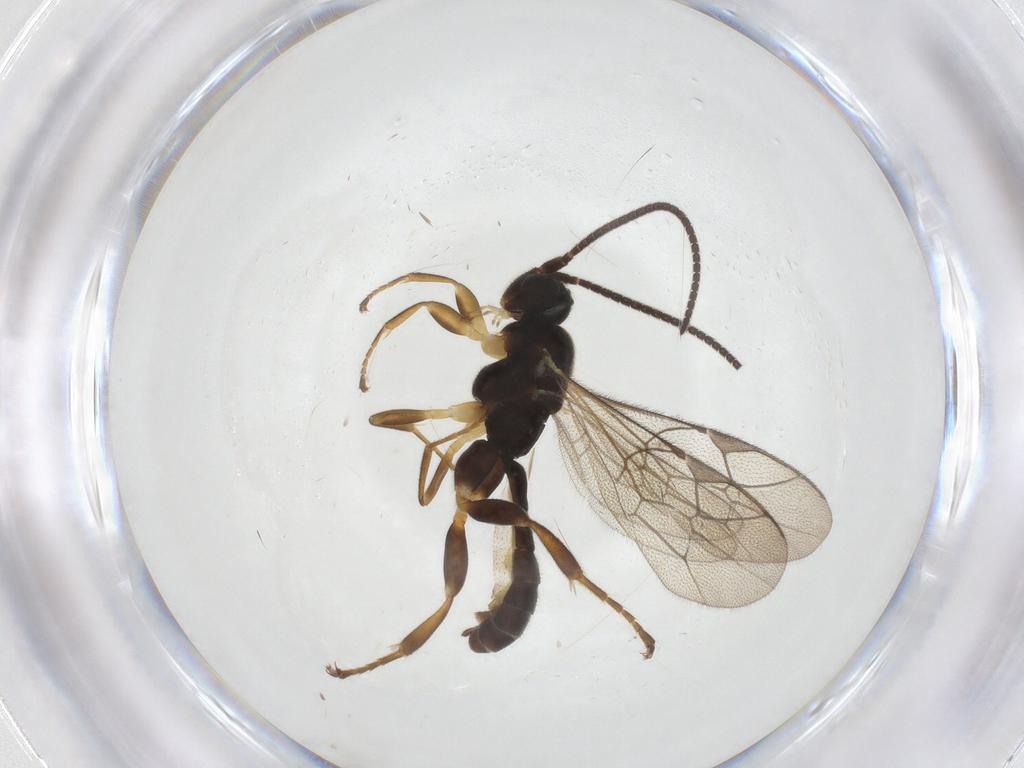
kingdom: Animalia
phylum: Arthropoda
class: Insecta
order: Hymenoptera
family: Ichneumonidae
